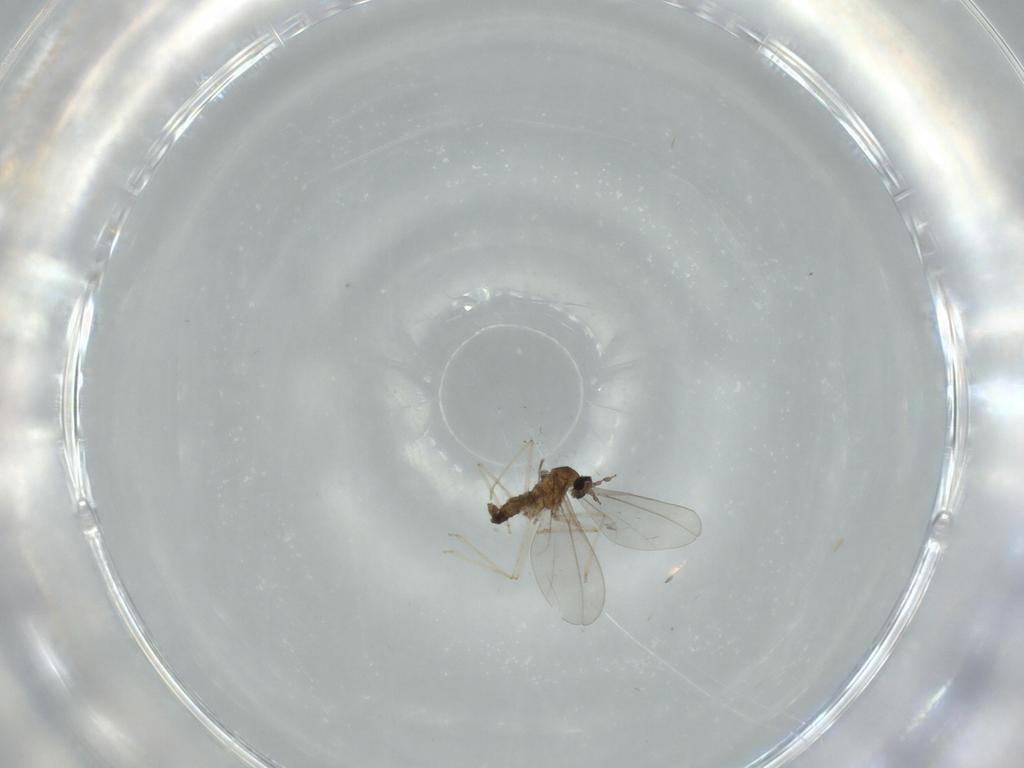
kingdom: Animalia
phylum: Arthropoda
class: Insecta
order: Diptera
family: Cecidomyiidae
